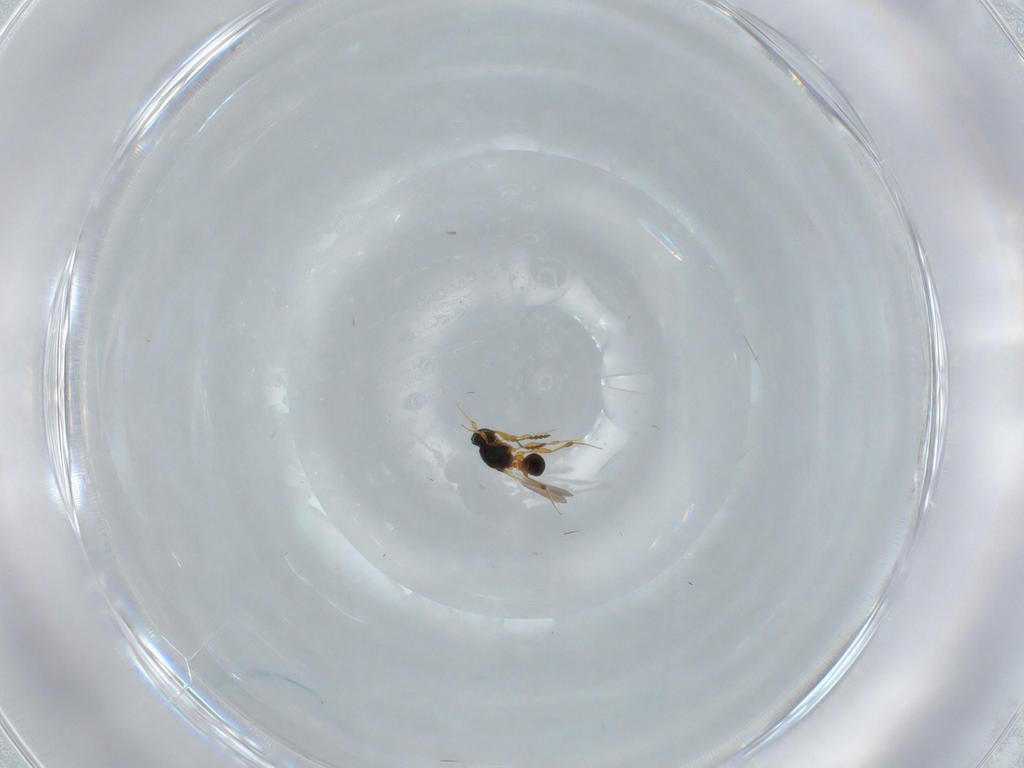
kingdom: Animalia
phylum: Arthropoda
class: Insecta
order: Hymenoptera
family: Platygastridae
